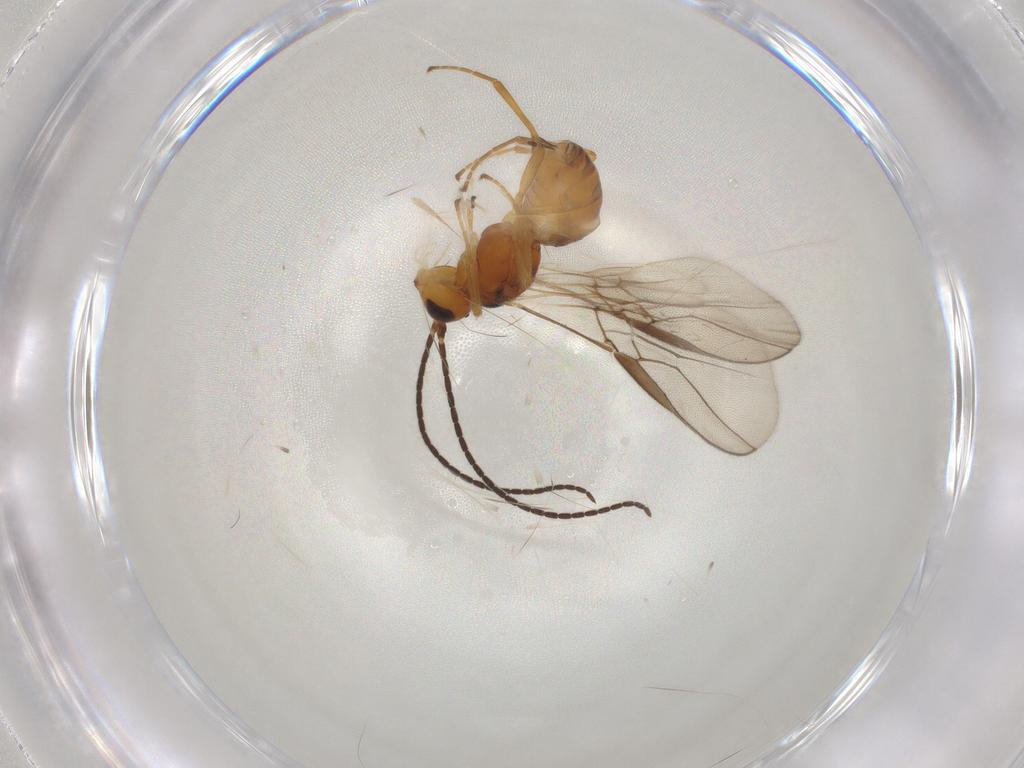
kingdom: Animalia
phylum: Arthropoda
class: Insecta
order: Hymenoptera
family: Braconidae
